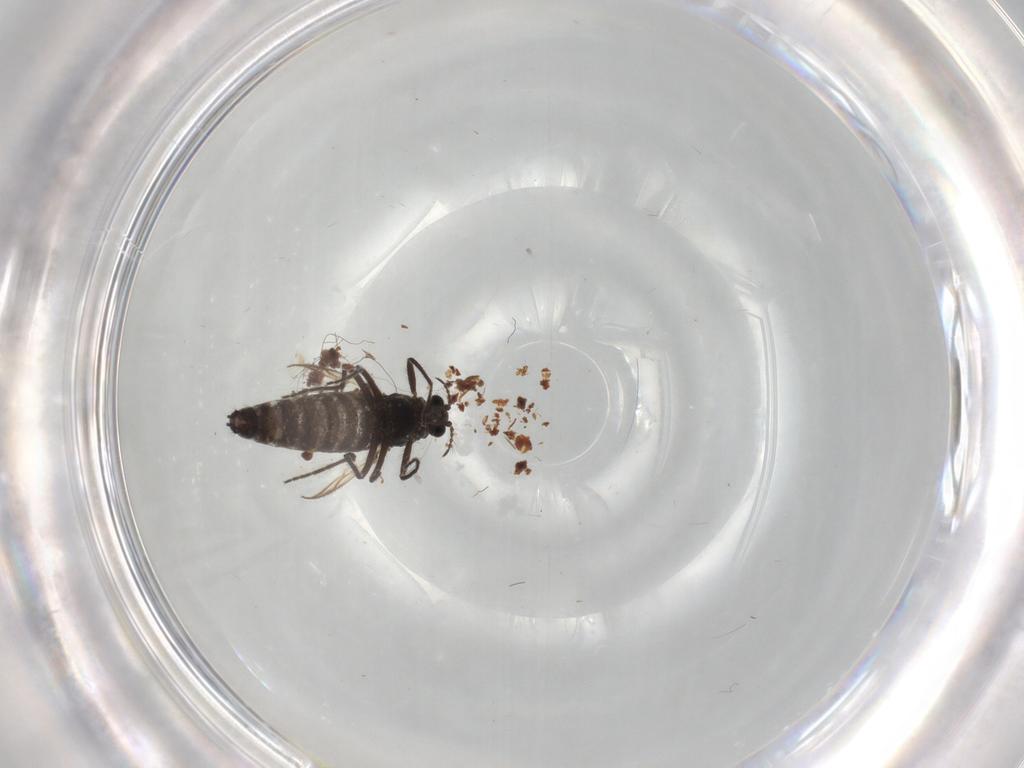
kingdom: Animalia
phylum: Arthropoda
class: Insecta
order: Diptera
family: Sciaridae
